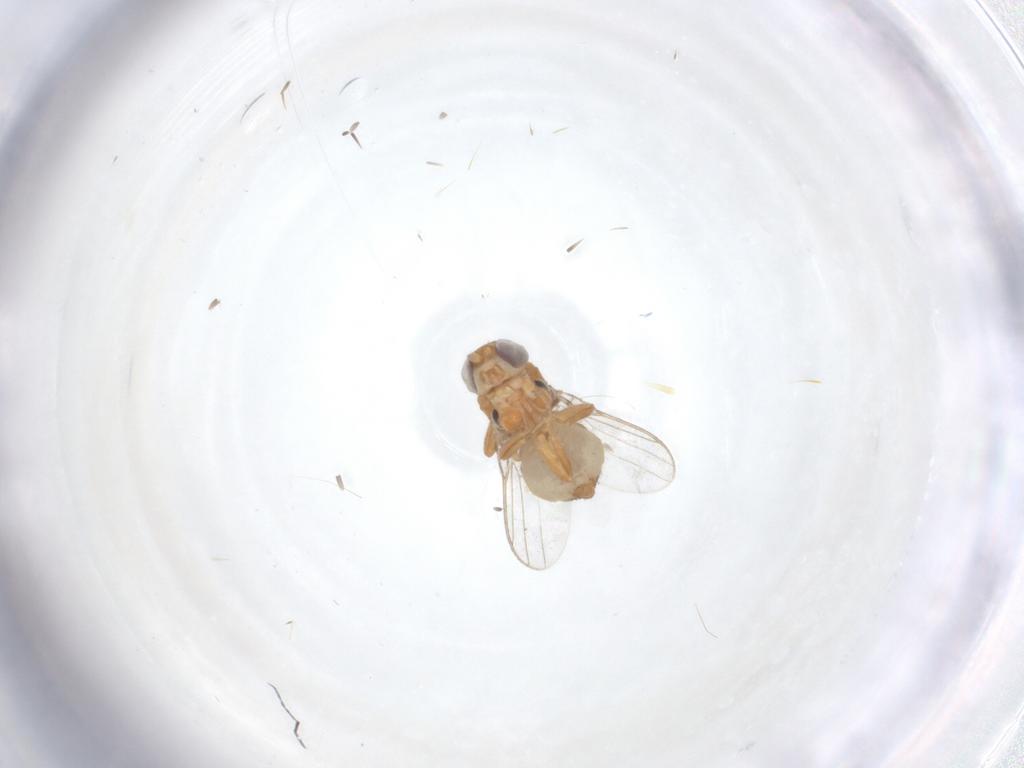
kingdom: Animalia
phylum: Arthropoda
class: Insecta
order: Diptera
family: Chloropidae
